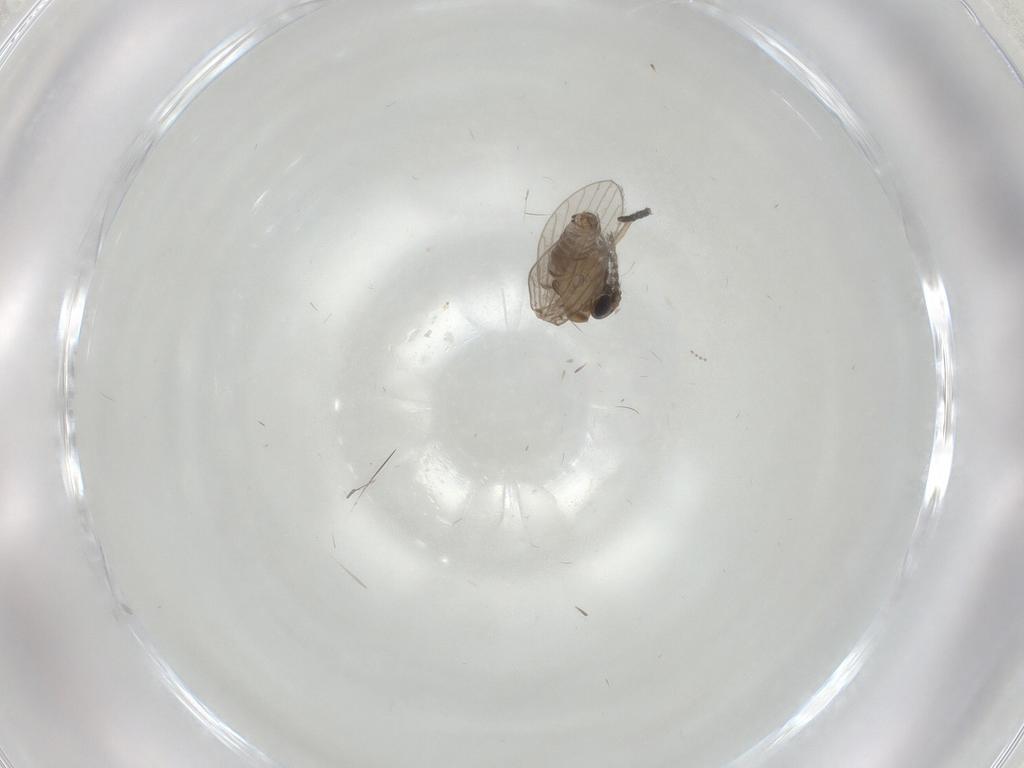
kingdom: Animalia
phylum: Arthropoda
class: Insecta
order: Diptera
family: Psychodidae
